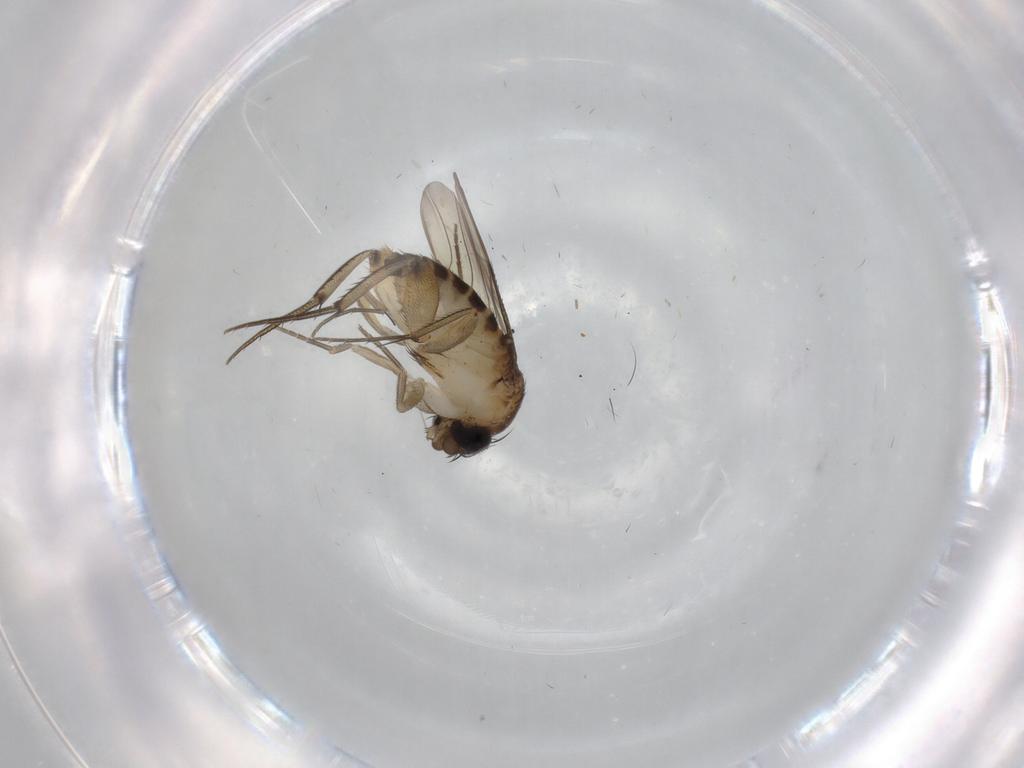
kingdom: Animalia
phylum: Arthropoda
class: Insecta
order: Diptera
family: Phoridae
